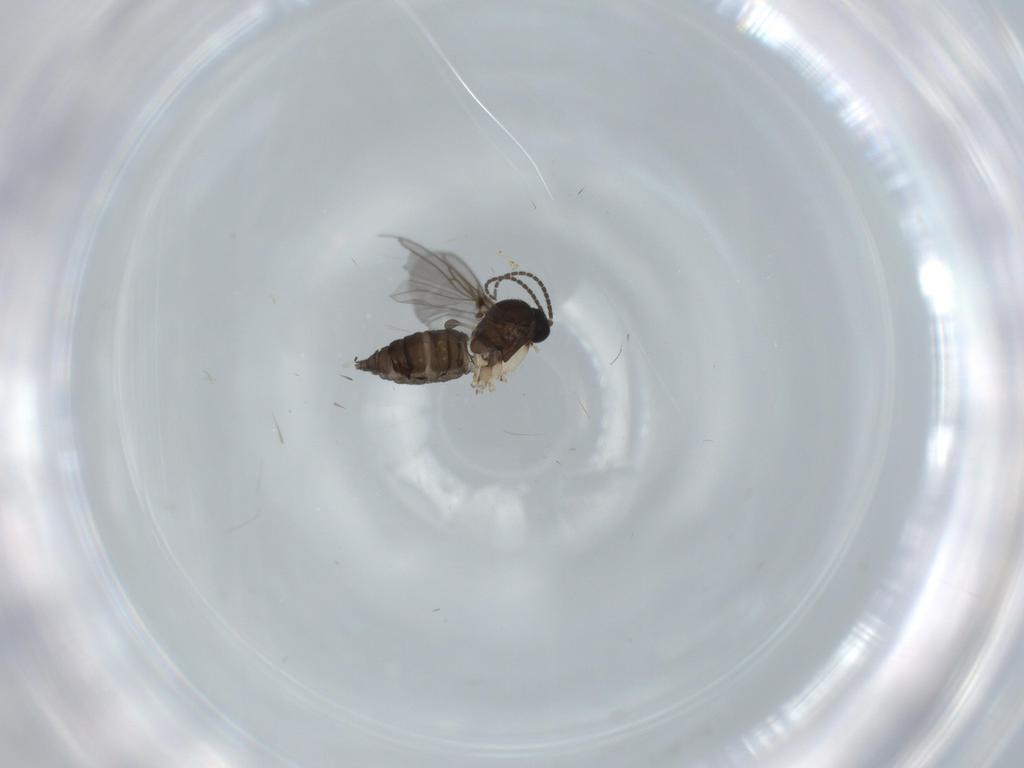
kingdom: Animalia
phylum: Arthropoda
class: Insecta
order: Diptera
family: Sciaridae
